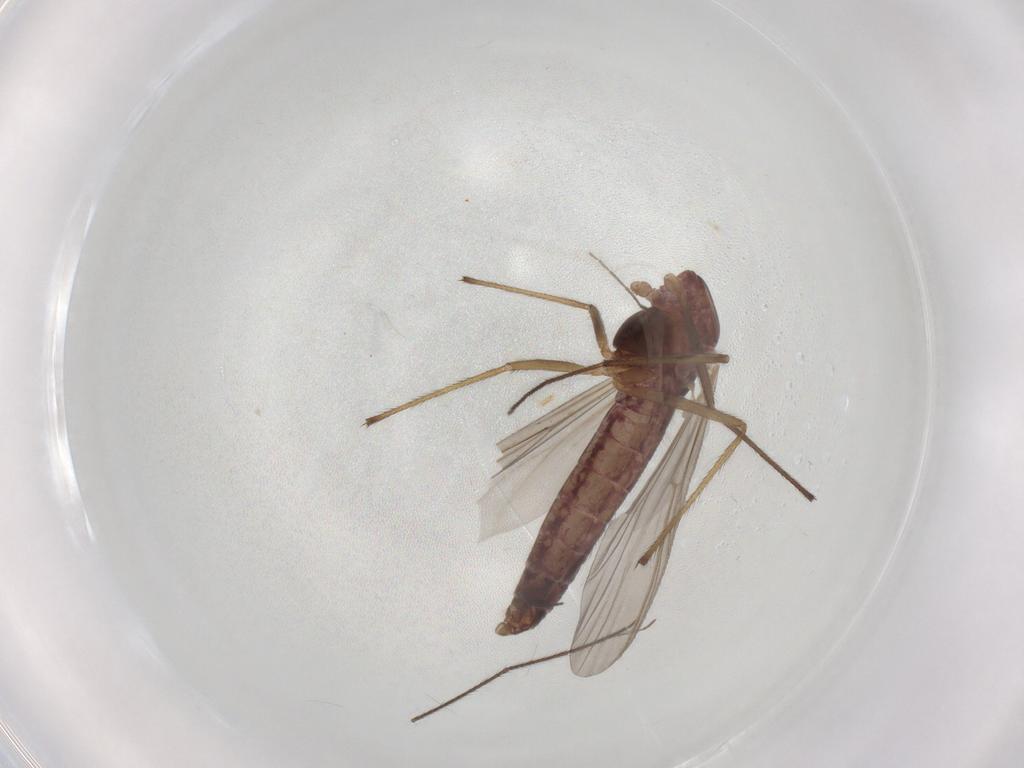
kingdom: Animalia
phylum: Arthropoda
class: Insecta
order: Diptera
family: Chironomidae
